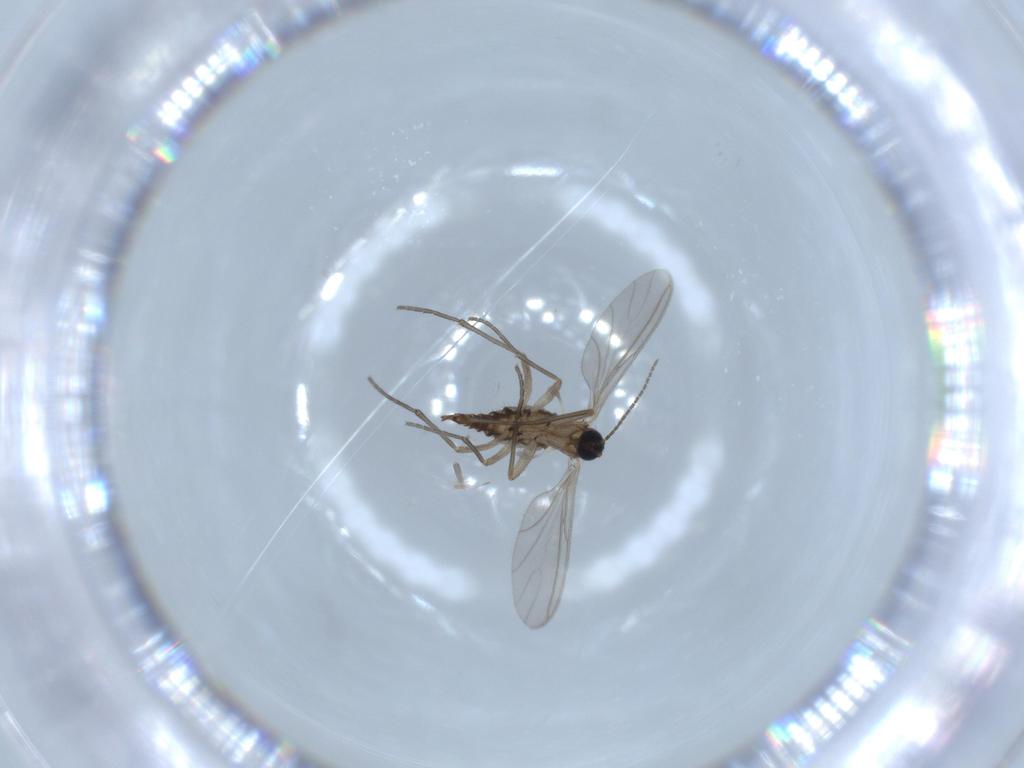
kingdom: Animalia
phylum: Arthropoda
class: Insecta
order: Diptera
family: Sciaridae
